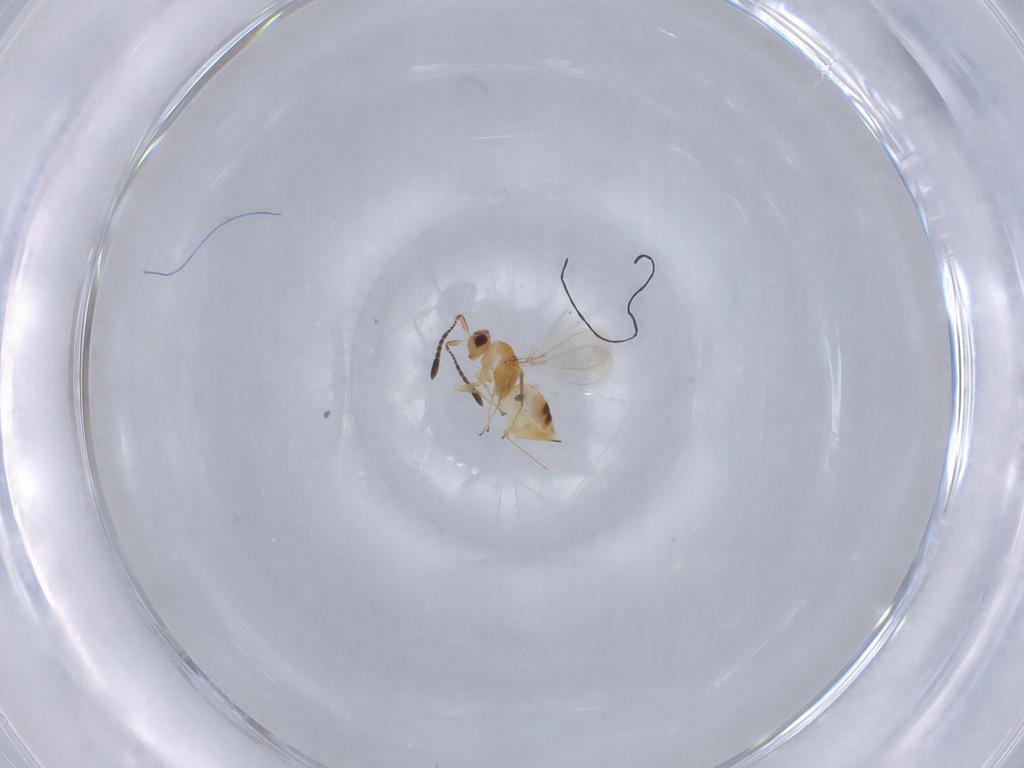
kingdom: Animalia
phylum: Arthropoda
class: Insecta
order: Hymenoptera
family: Mymaridae
